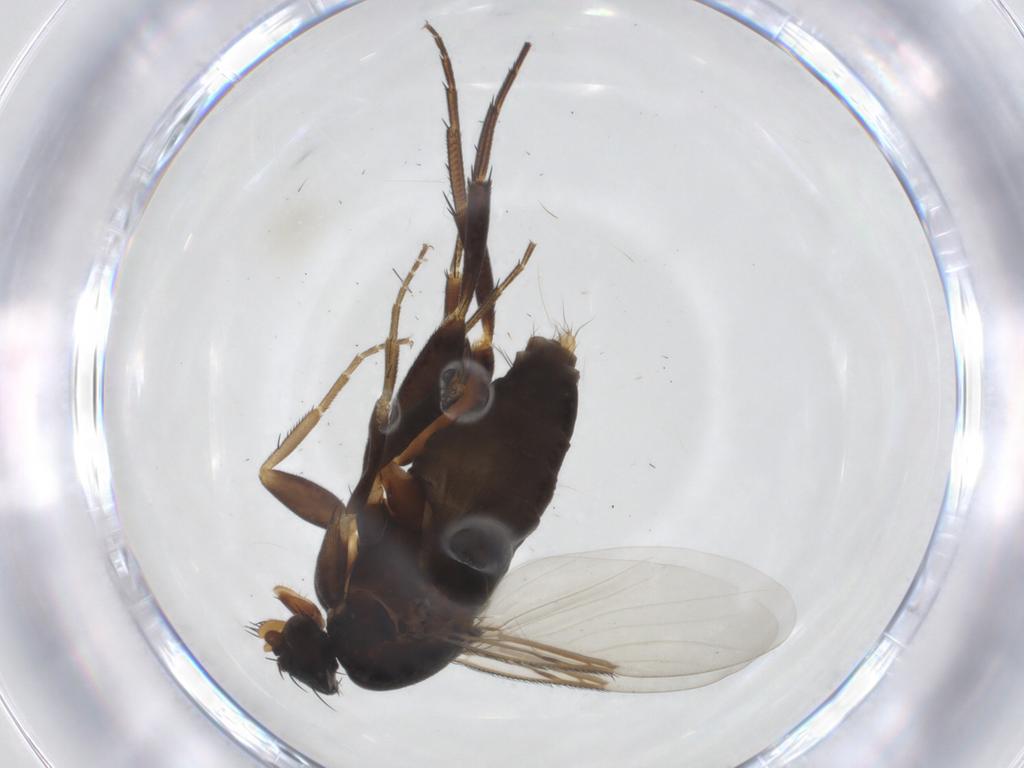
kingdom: Animalia
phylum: Arthropoda
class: Insecta
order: Diptera
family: Phoridae
